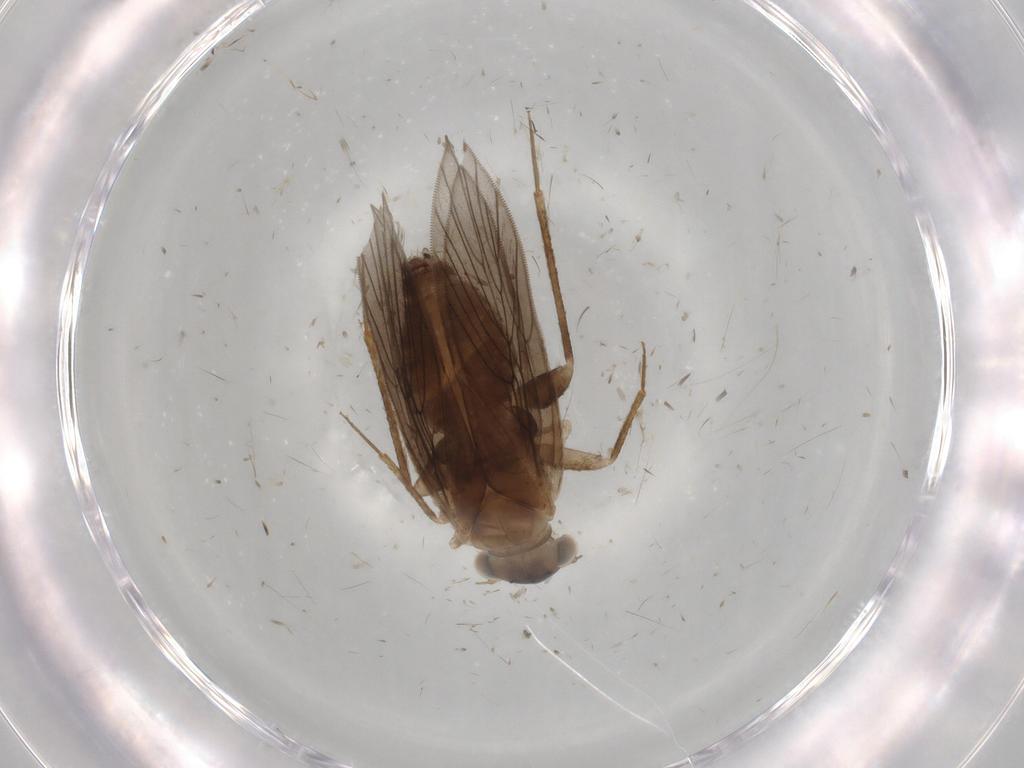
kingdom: Animalia
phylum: Arthropoda
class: Insecta
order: Psocodea
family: Lepidopsocidae
